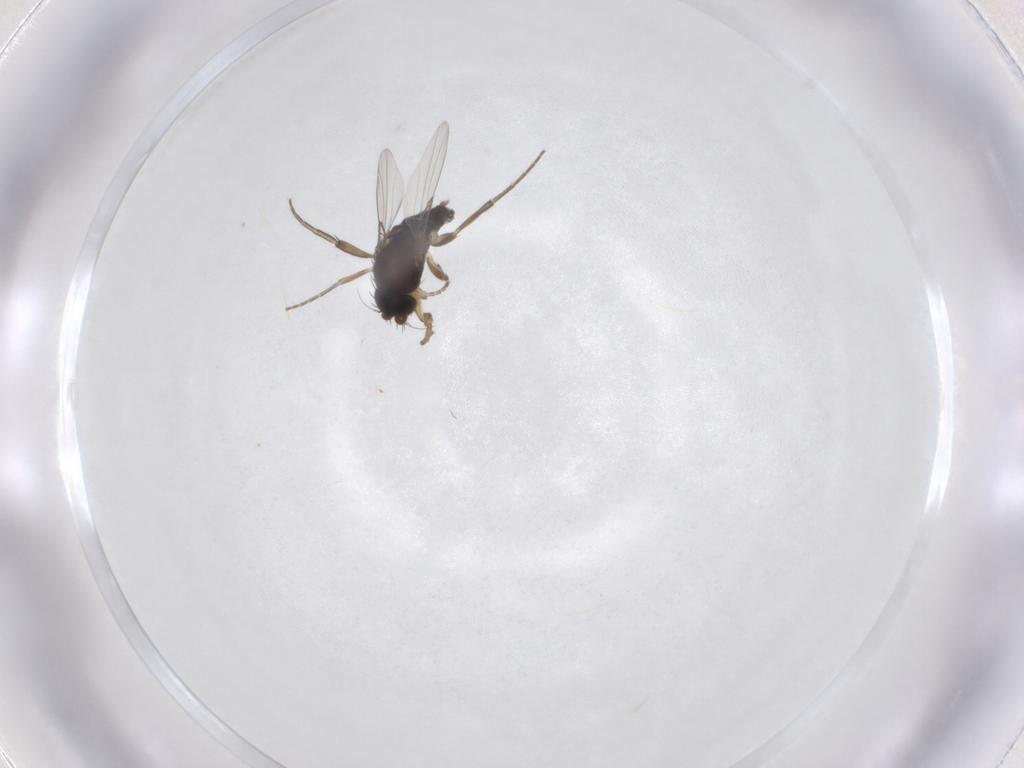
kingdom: Animalia
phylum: Arthropoda
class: Insecta
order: Diptera
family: Phoridae
